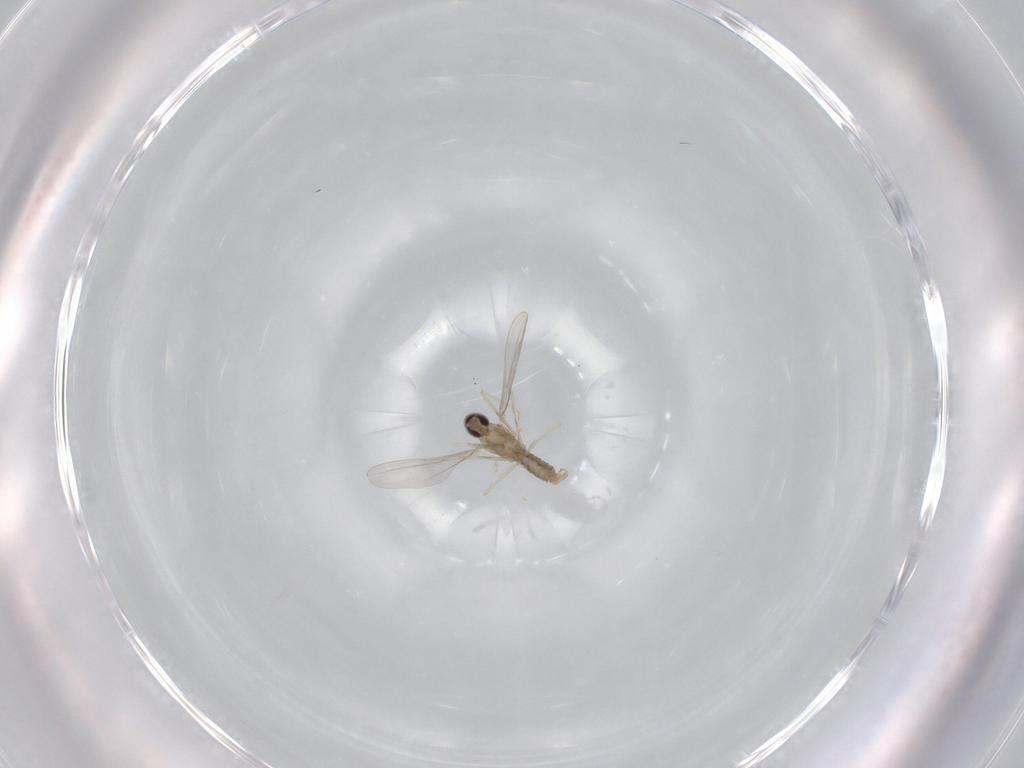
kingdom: Animalia
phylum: Arthropoda
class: Insecta
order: Diptera
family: Cecidomyiidae
